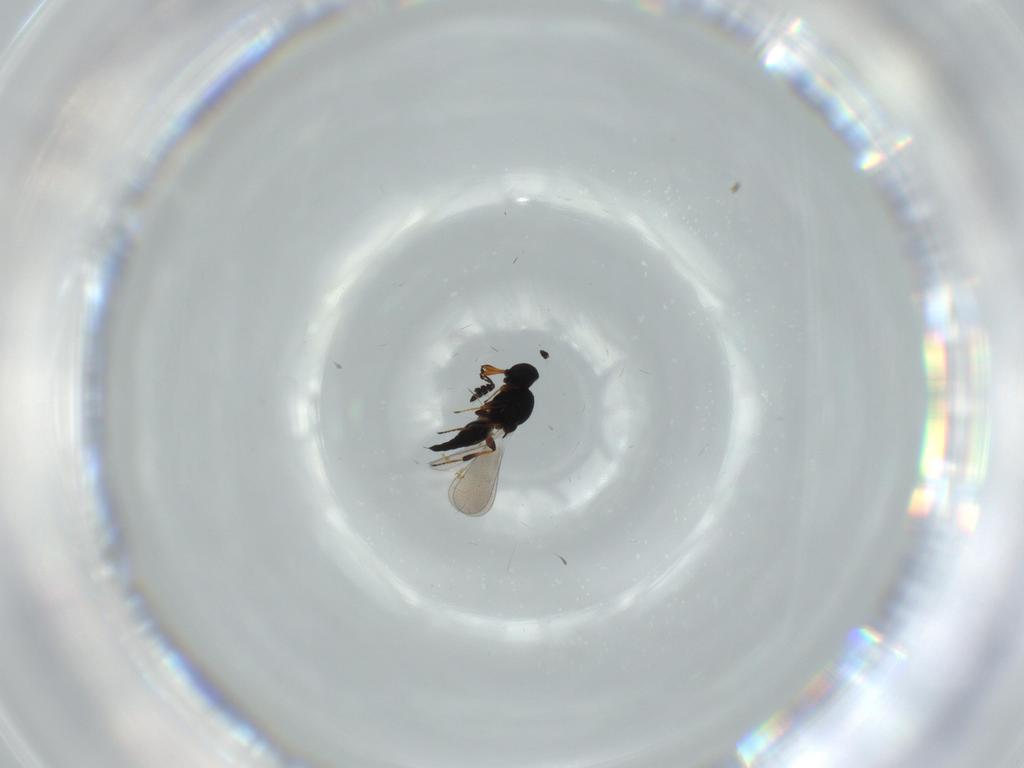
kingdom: Animalia
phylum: Arthropoda
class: Insecta
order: Hymenoptera
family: Platygastridae
